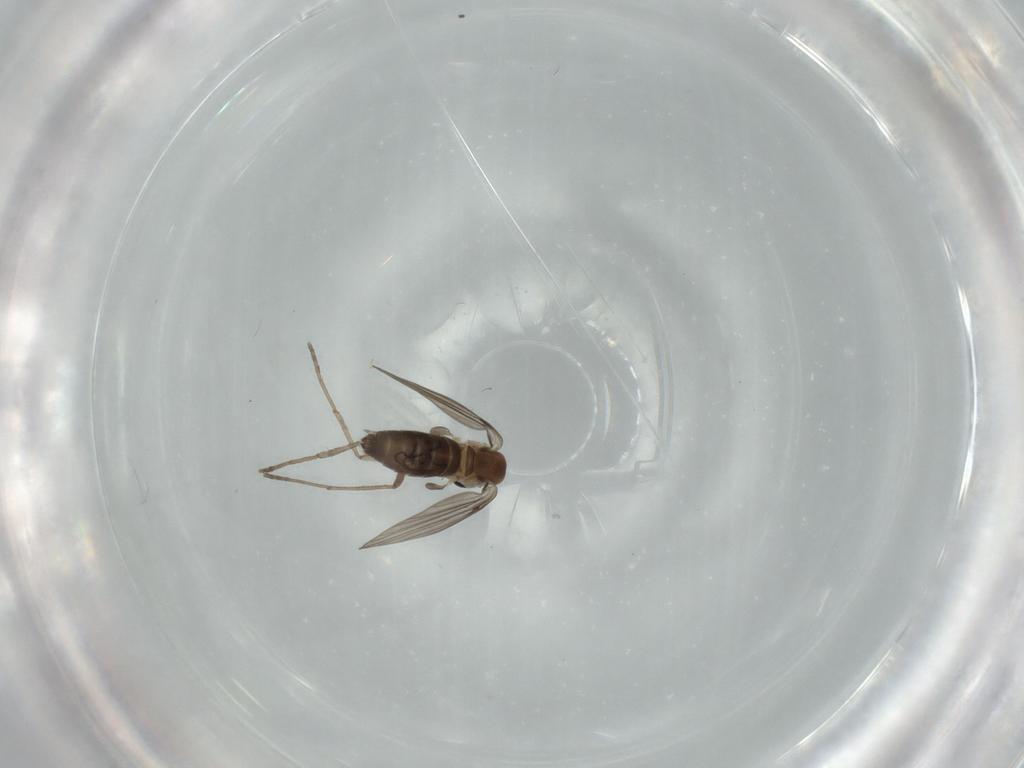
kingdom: Animalia
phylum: Arthropoda
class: Insecta
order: Diptera
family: Psychodidae
